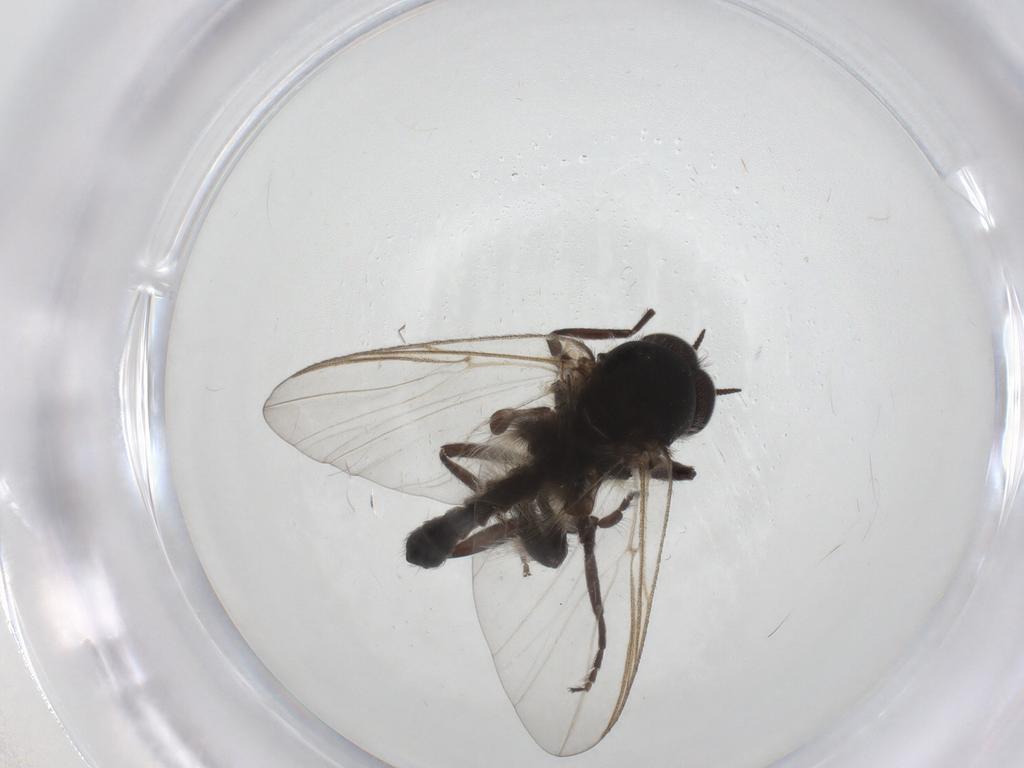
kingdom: Animalia
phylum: Arthropoda
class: Insecta
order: Diptera
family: Simuliidae
